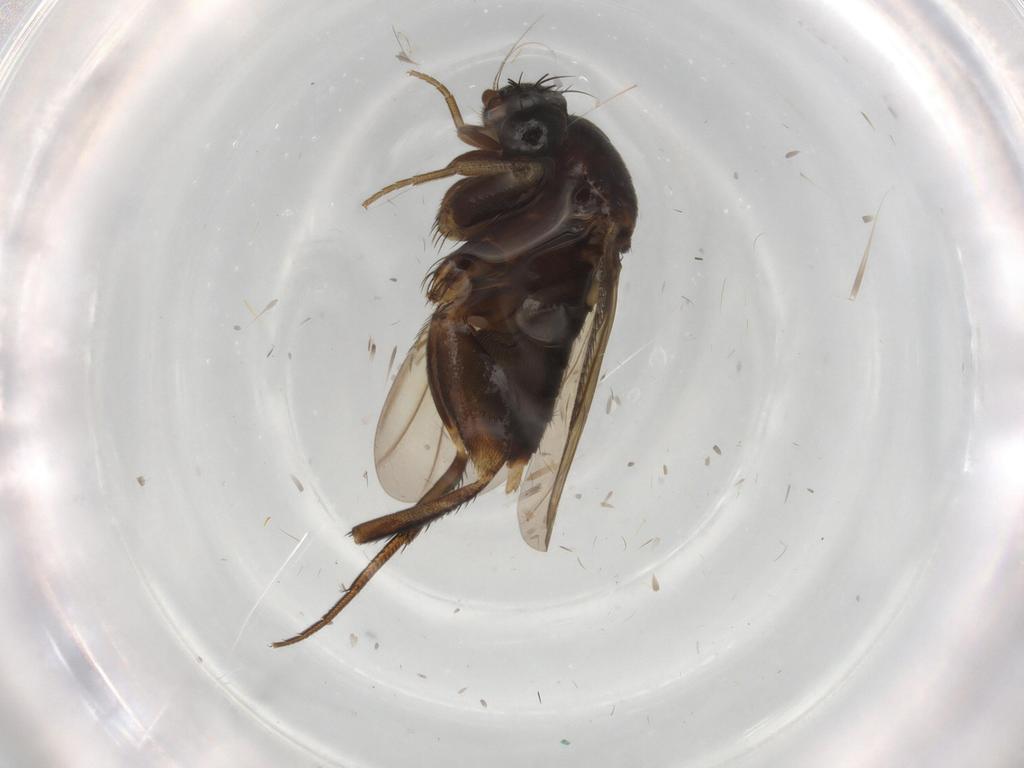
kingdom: Animalia
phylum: Arthropoda
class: Insecta
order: Diptera
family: Phoridae
